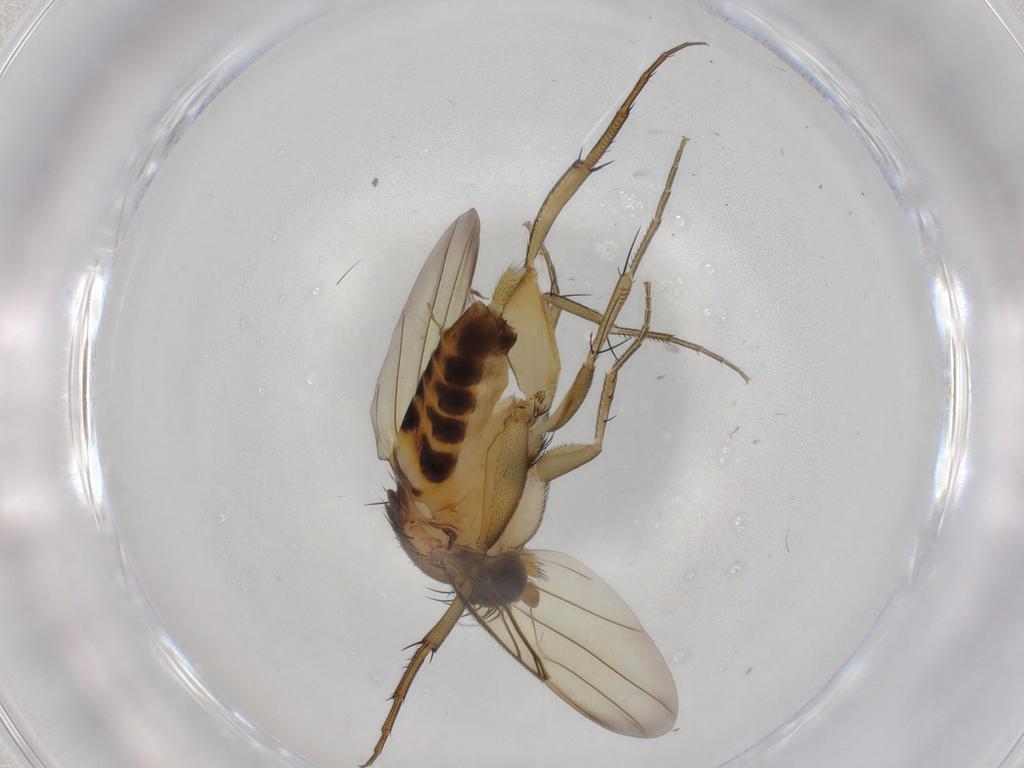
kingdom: Animalia
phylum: Arthropoda
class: Insecta
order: Diptera
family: Phoridae
